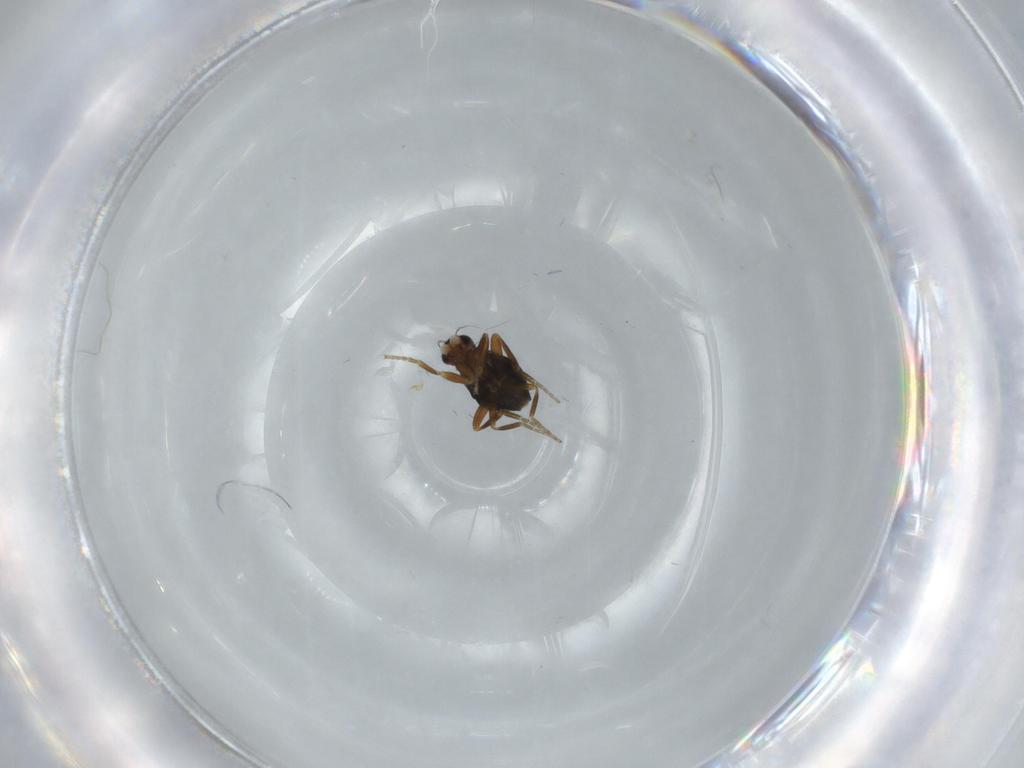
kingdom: Animalia
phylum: Arthropoda
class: Insecta
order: Diptera
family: Phoridae
